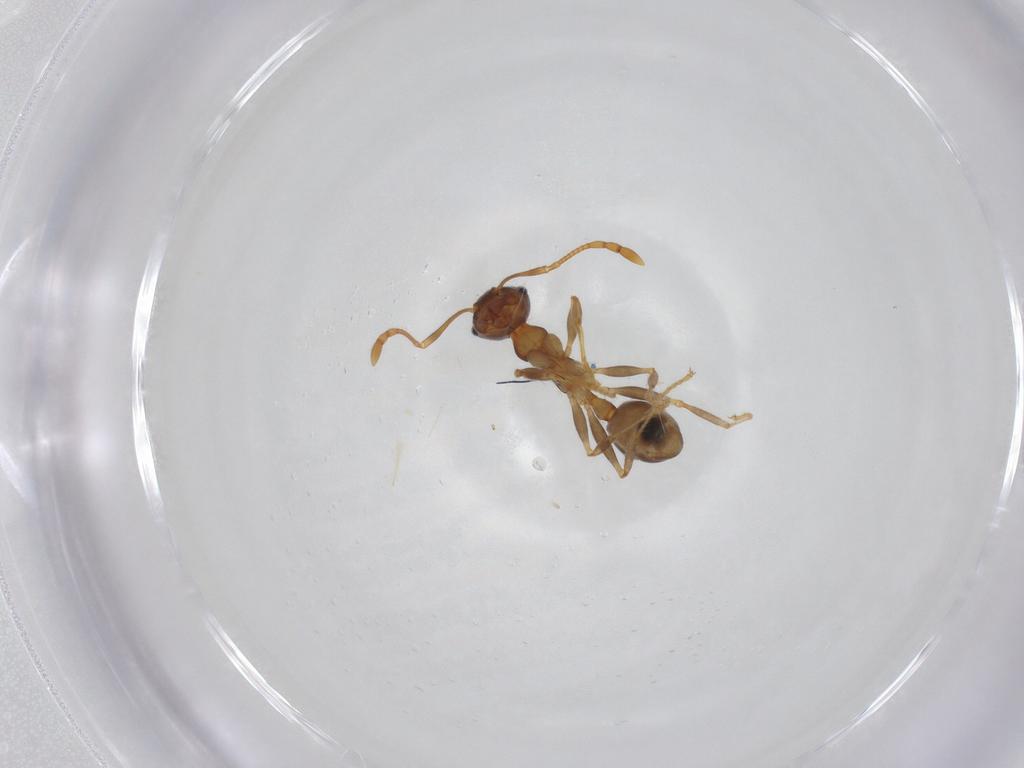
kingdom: Animalia
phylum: Arthropoda
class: Insecta
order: Hymenoptera
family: Formicidae
